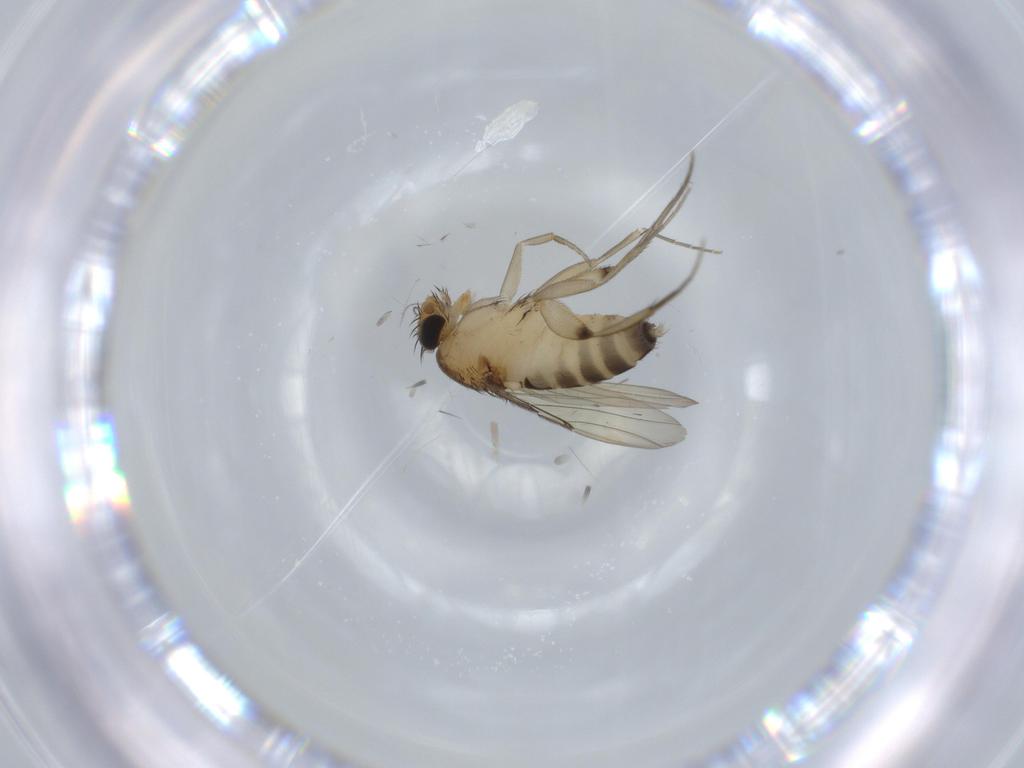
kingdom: Animalia
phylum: Arthropoda
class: Insecta
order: Diptera
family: Phoridae
